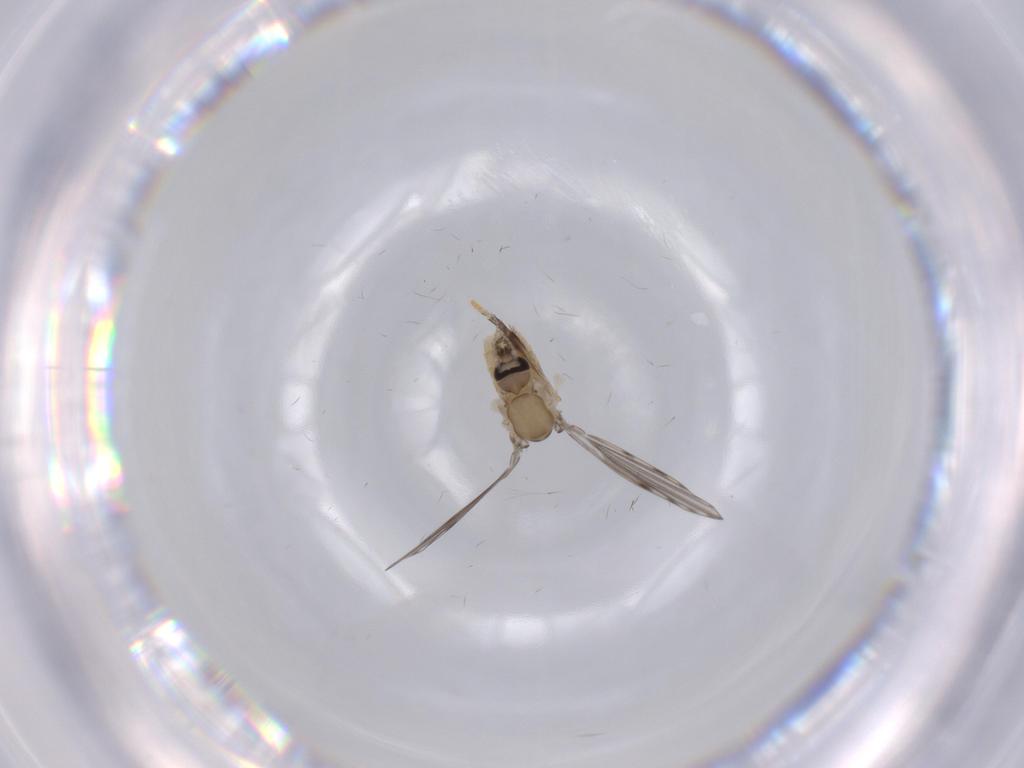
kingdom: Animalia
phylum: Arthropoda
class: Insecta
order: Diptera
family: Psychodidae
